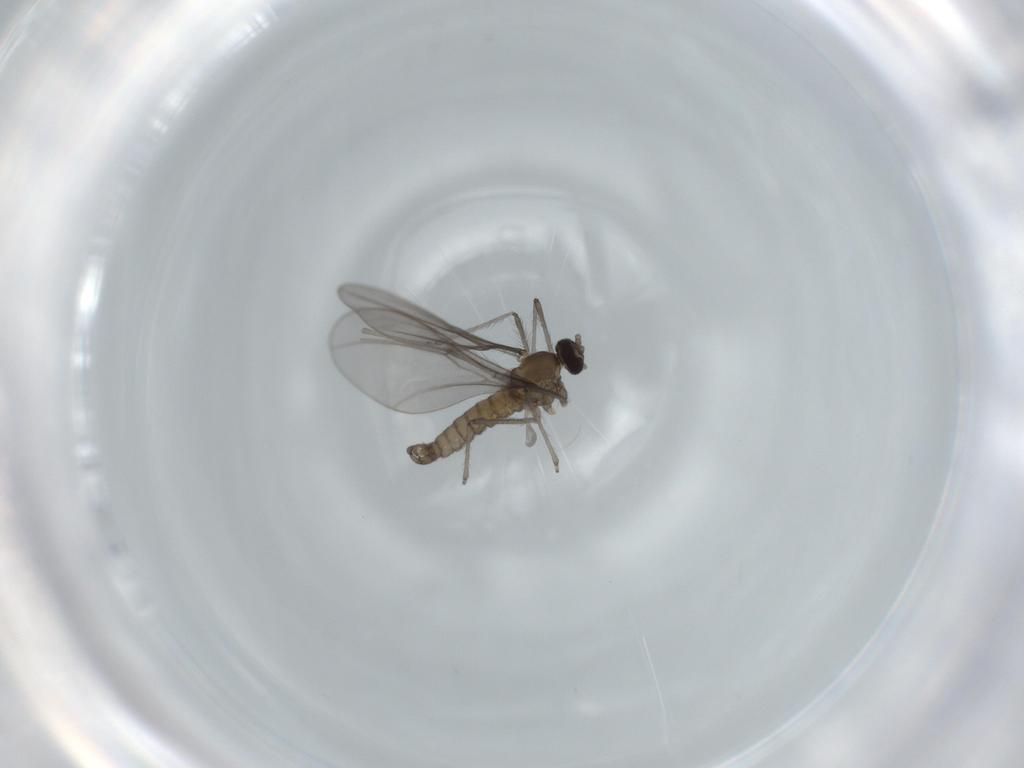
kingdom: Animalia
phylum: Arthropoda
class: Insecta
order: Diptera
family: Cecidomyiidae
